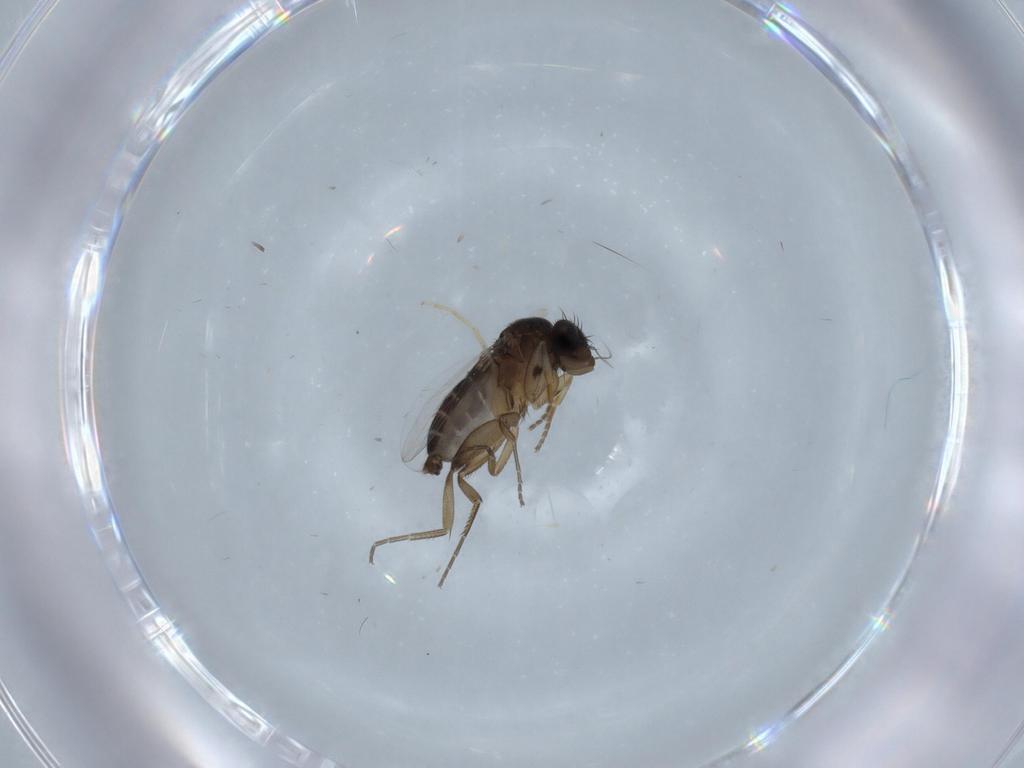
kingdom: Animalia
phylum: Arthropoda
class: Insecta
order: Diptera
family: Phoridae
